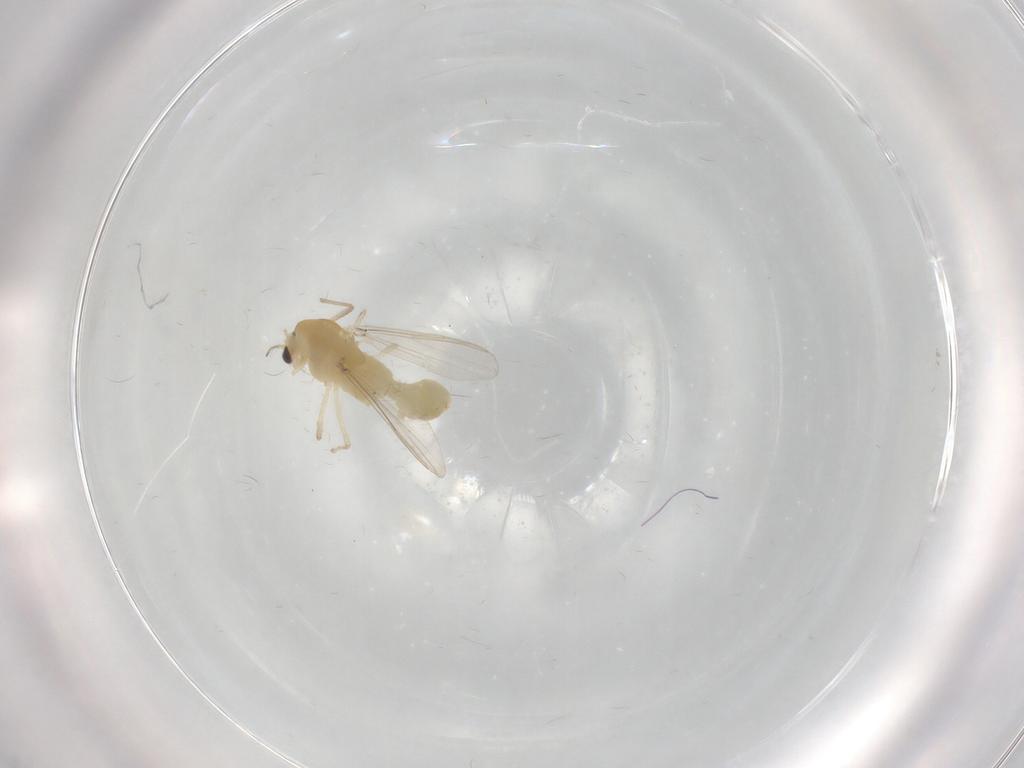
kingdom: Animalia
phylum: Arthropoda
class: Insecta
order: Diptera
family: Chironomidae
